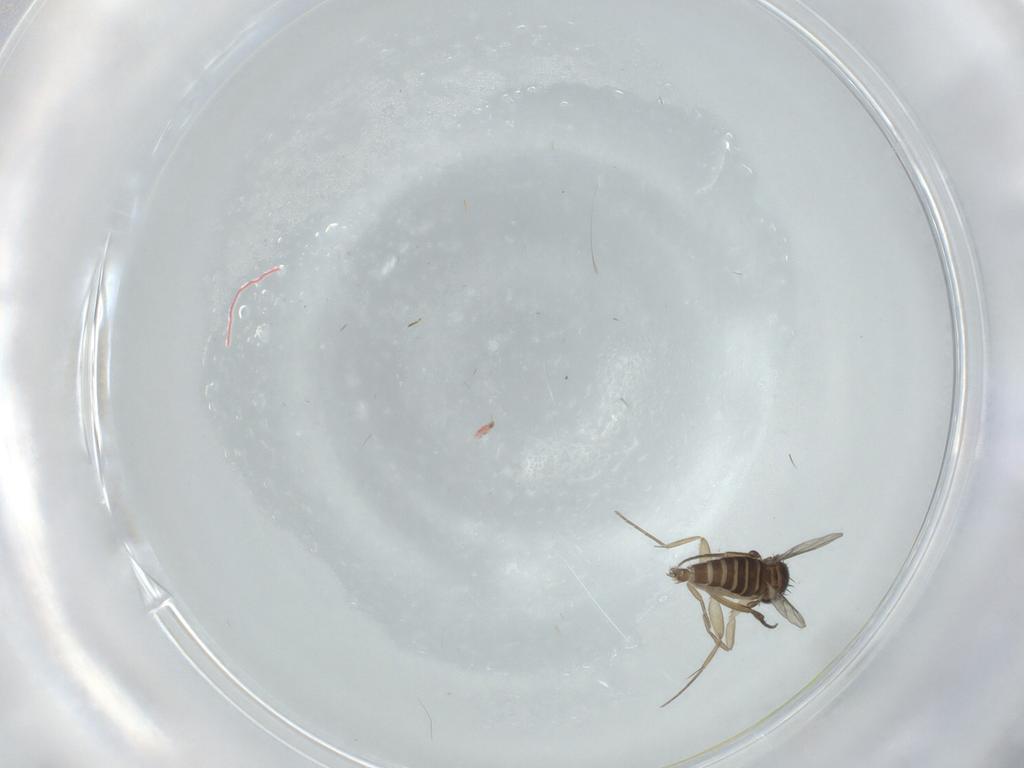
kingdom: Animalia
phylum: Arthropoda
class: Insecta
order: Diptera
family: Phoridae
